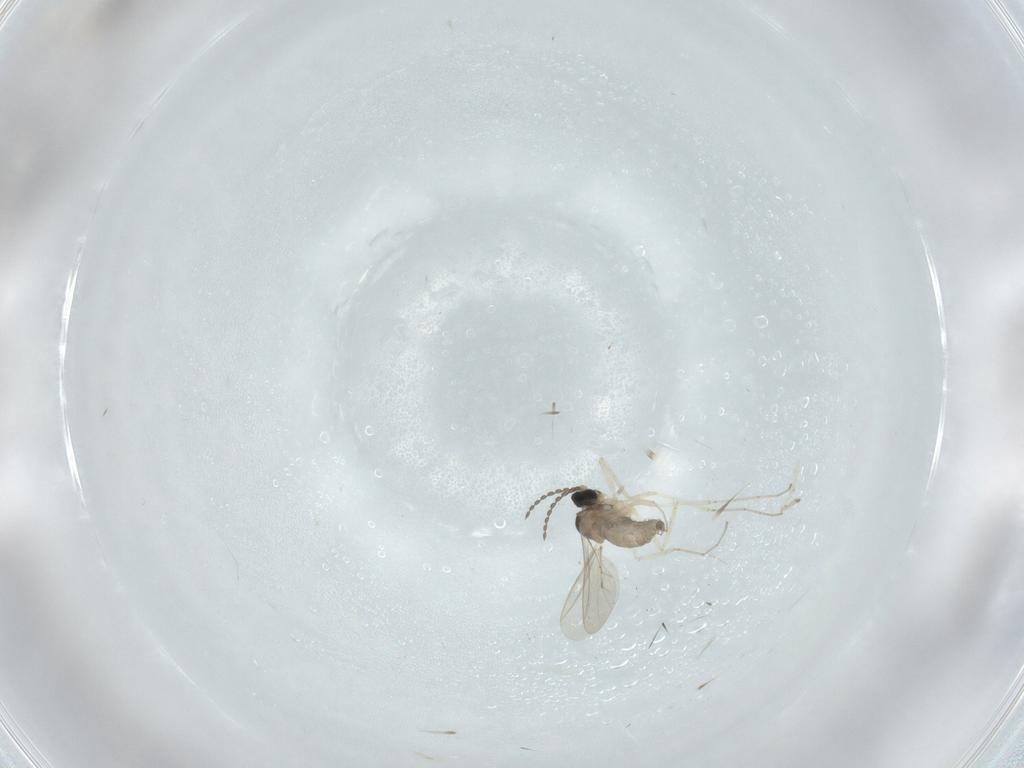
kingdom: Animalia
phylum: Arthropoda
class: Insecta
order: Diptera
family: Cecidomyiidae
